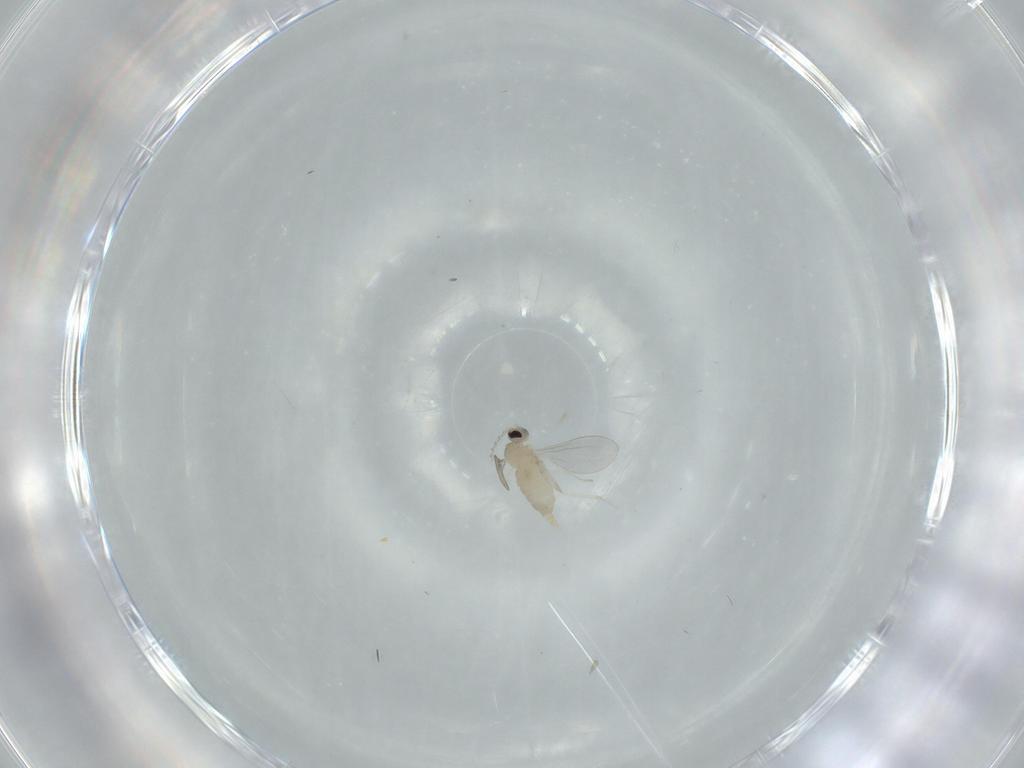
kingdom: Animalia
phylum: Arthropoda
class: Insecta
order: Diptera
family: Cecidomyiidae
